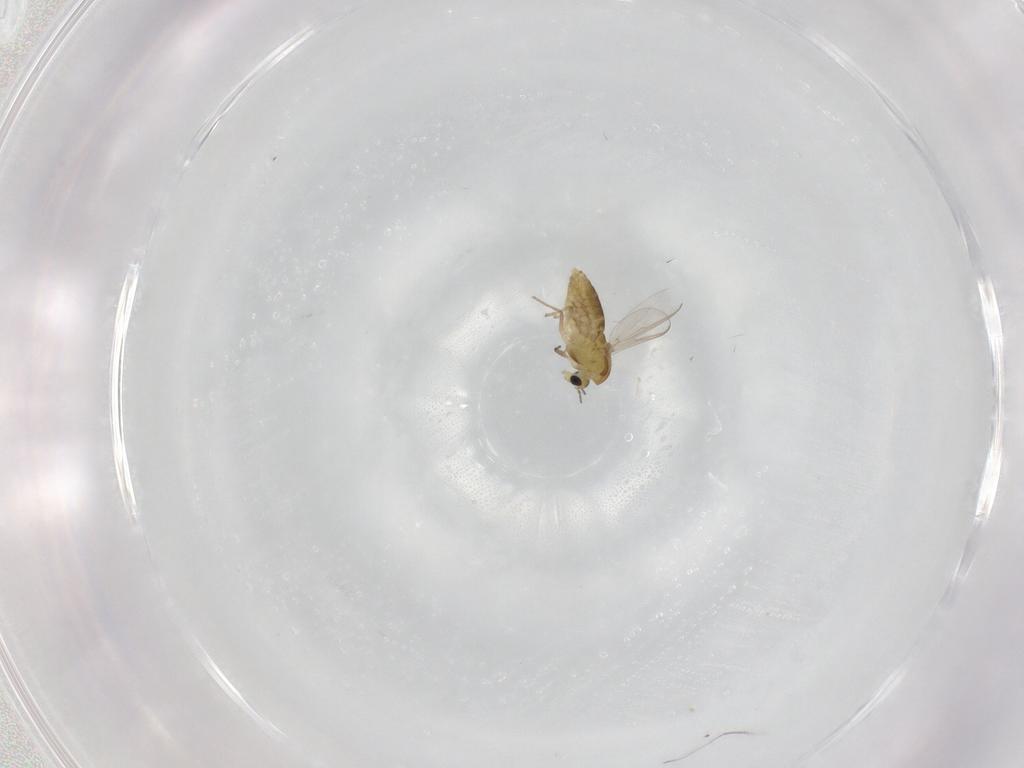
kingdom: Animalia
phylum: Arthropoda
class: Insecta
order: Diptera
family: Chironomidae
